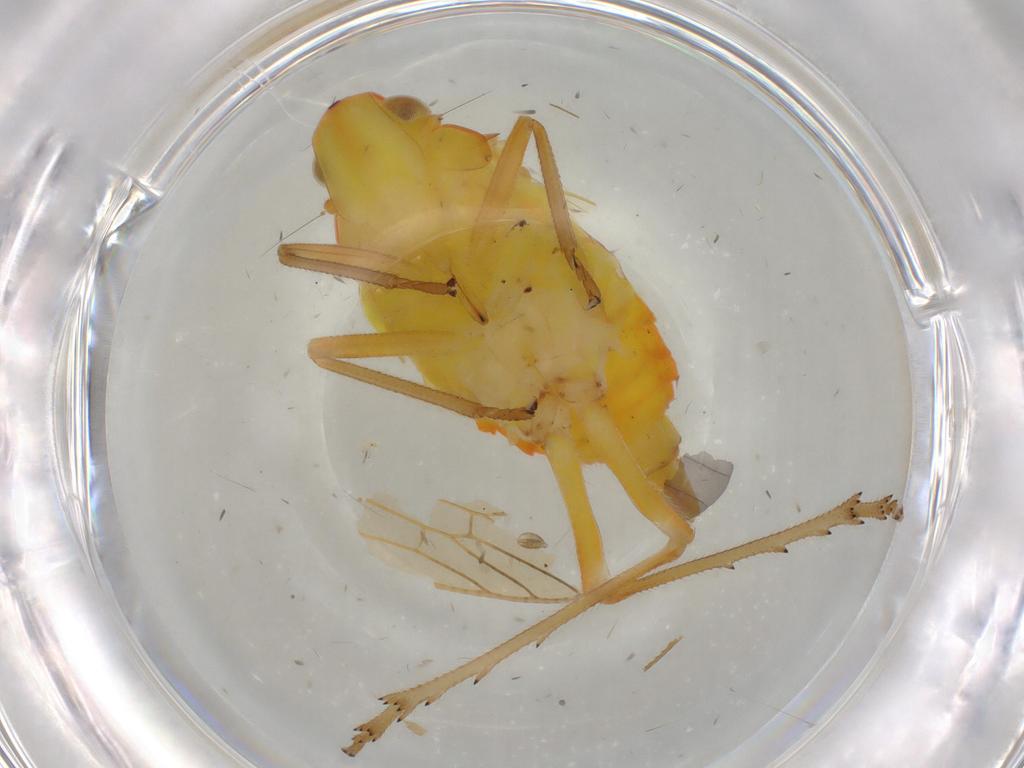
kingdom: Animalia
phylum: Arthropoda
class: Insecta
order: Hemiptera
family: Fulgoroidea_incertae_sedis
